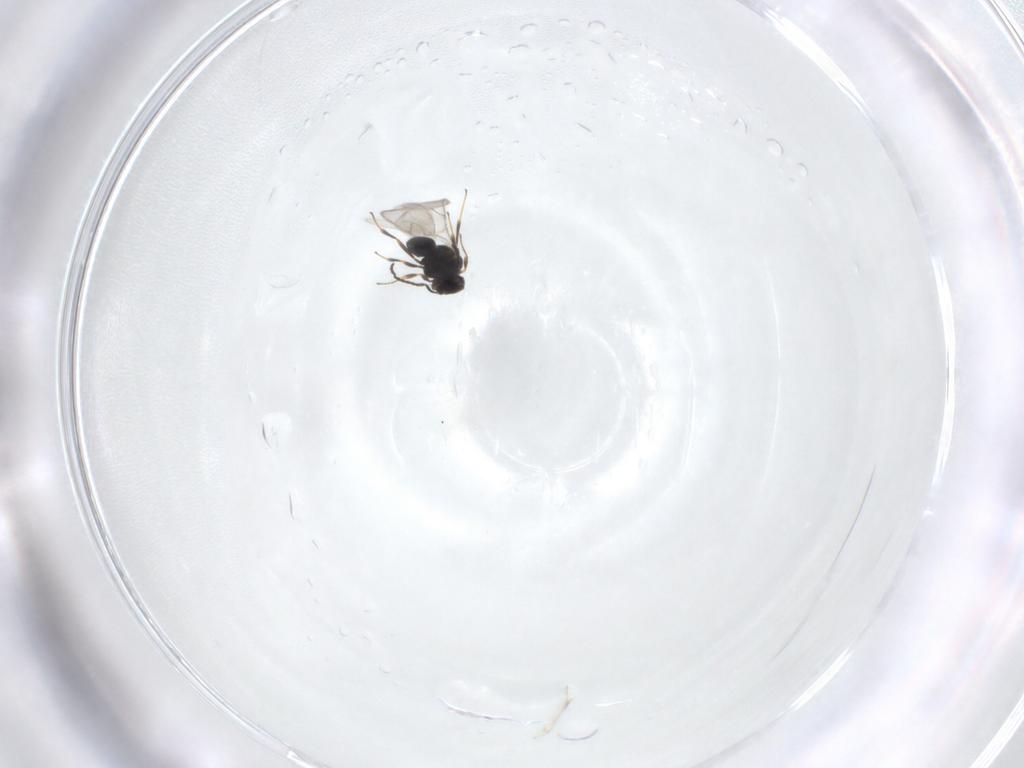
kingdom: Animalia
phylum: Arthropoda
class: Insecta
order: Hymenoptera
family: Scelionidae
